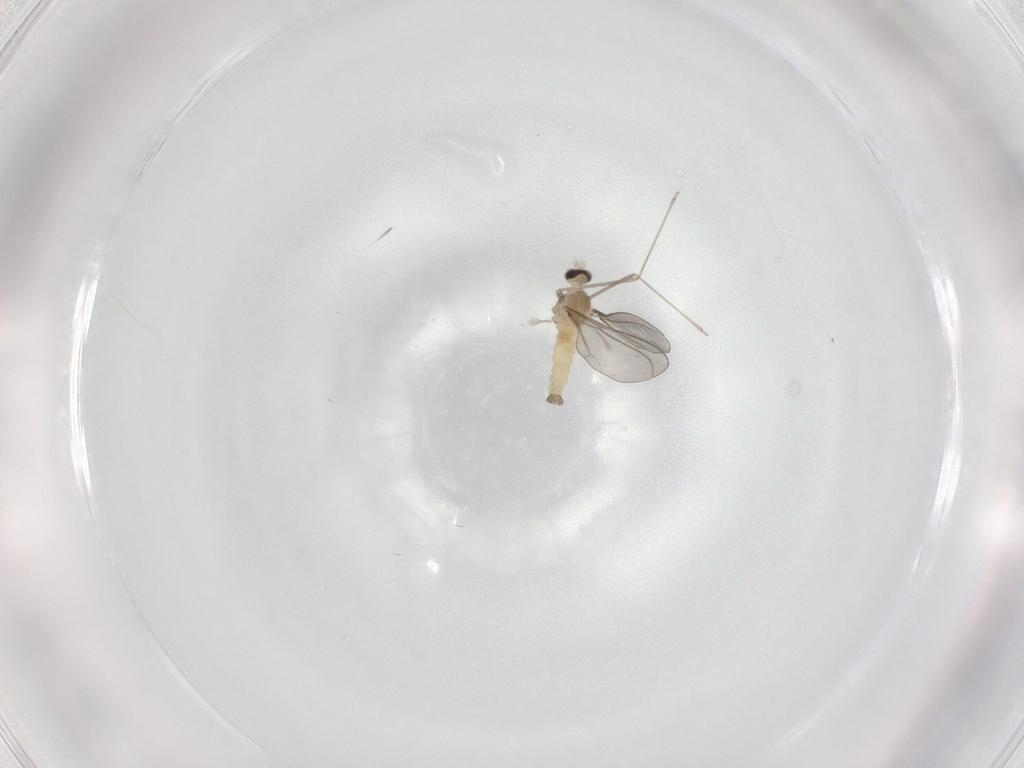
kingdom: Animalia
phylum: Arthropoda
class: Insecta
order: Diptera
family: Cecidomyiidae
